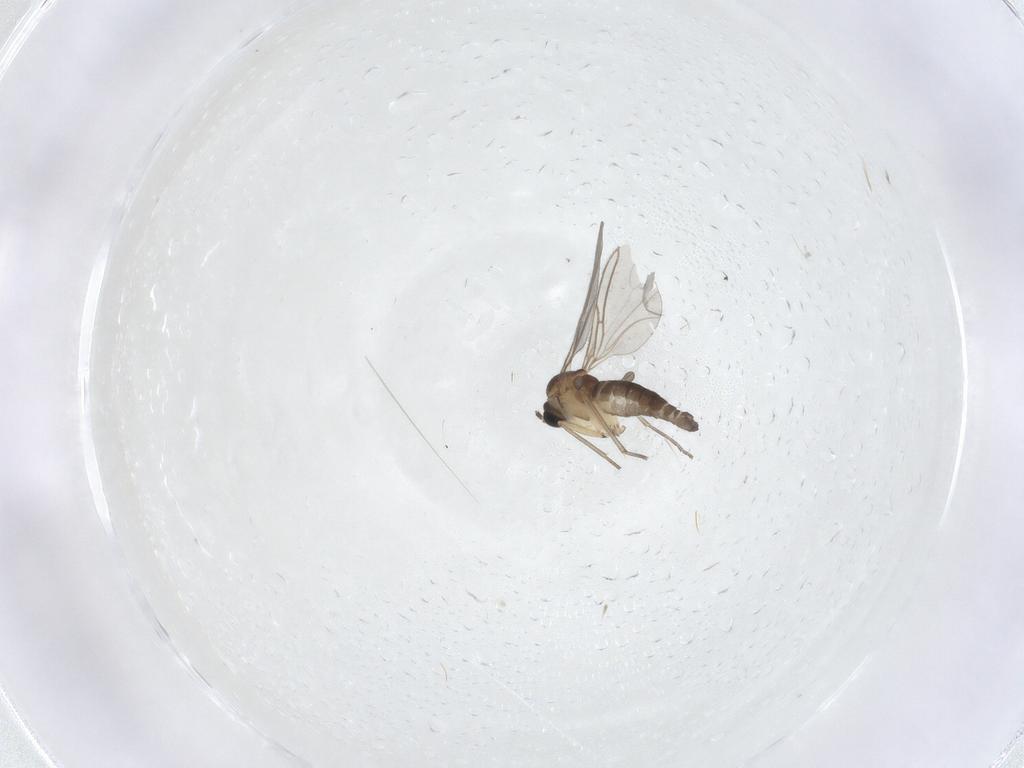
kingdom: Animalia
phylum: Arthropoda
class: Insecta
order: Diptera
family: Sciaridae
